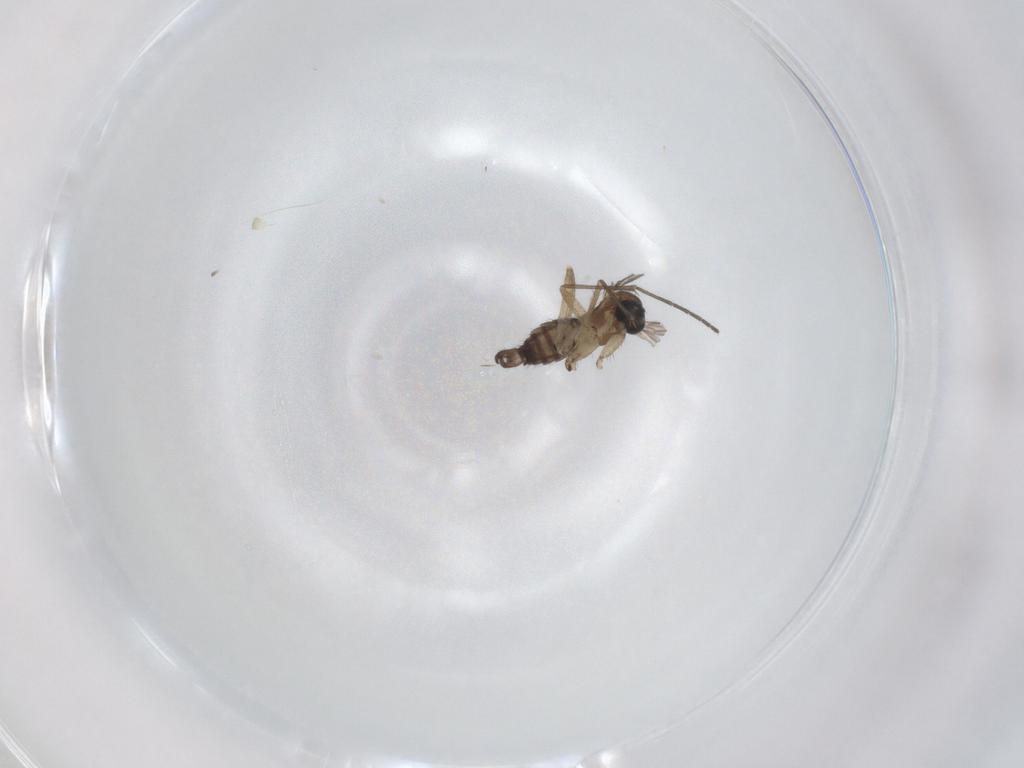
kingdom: Animalia
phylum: Arthropoda
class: Insecta
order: Diptera
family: Sciaridae
